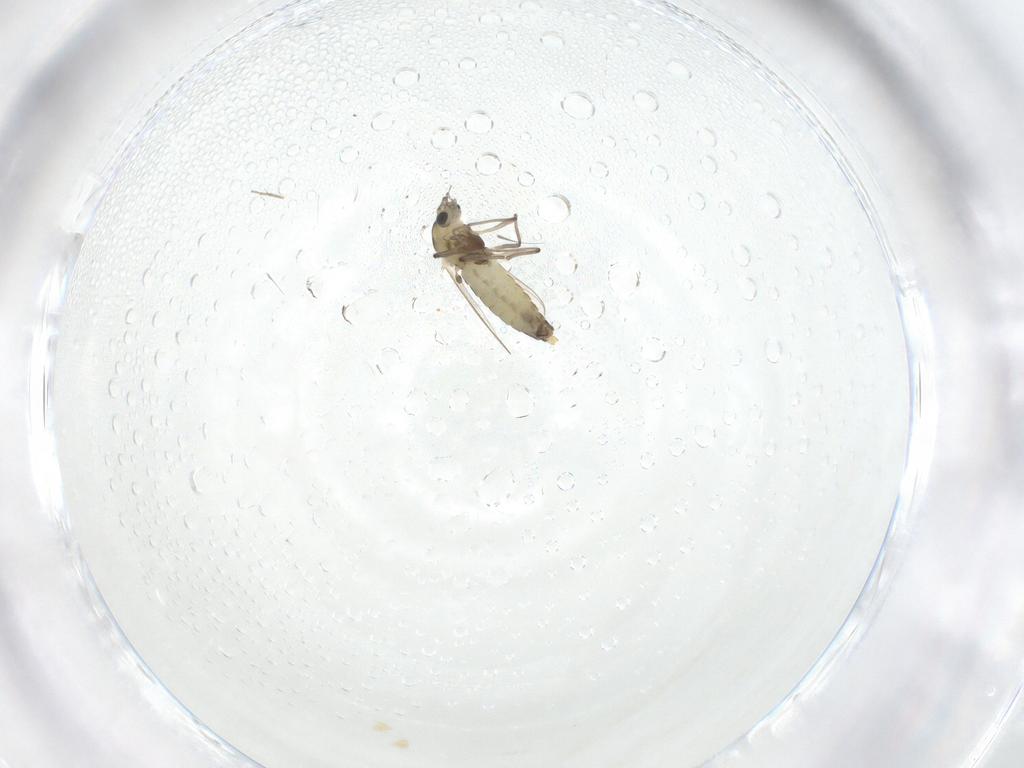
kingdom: Animalia
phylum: Arthropoda
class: Insecta
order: Diptera
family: Chironomidae
